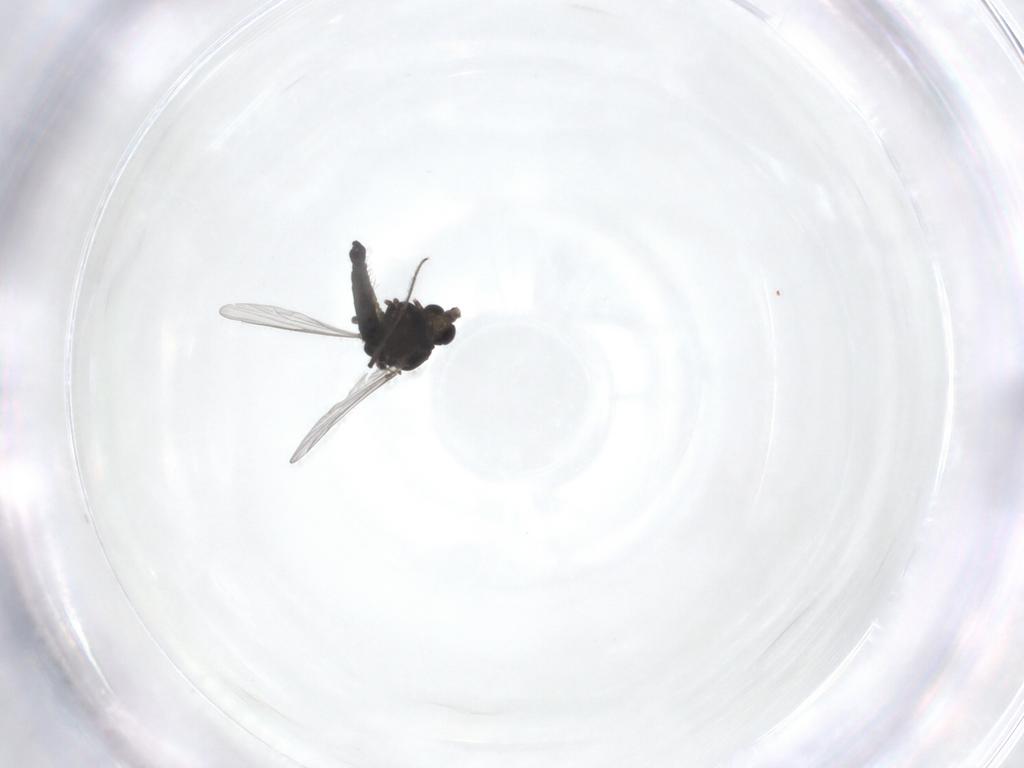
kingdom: Animalia
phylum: Arthropoda
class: Insecta
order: Diptera
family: Chironomidae
